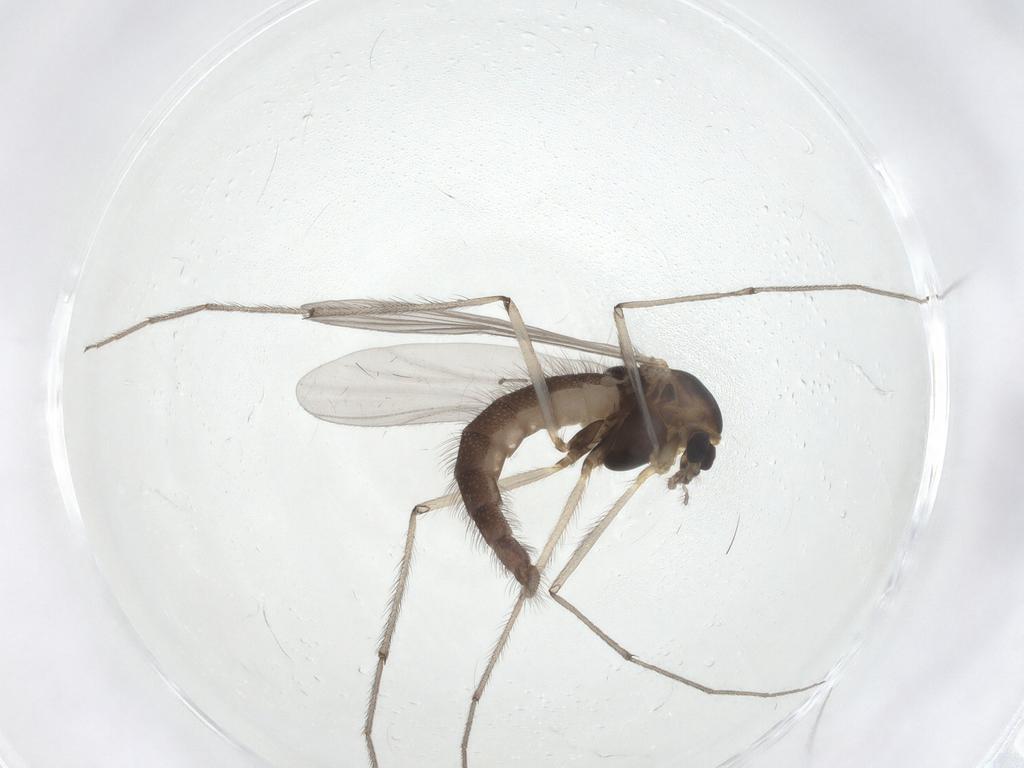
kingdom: Animalia
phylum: Arthropoda
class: Insecta
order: Diptera
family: Chironomidae
